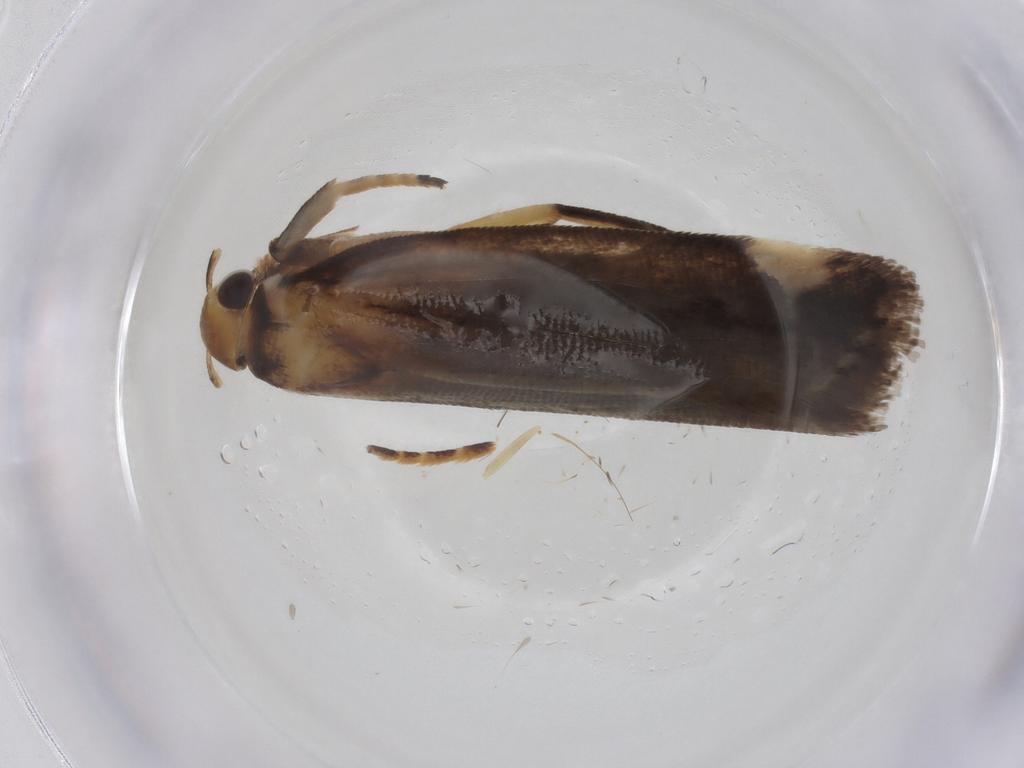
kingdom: Animalia
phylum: Arthropoda
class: Insecta
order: Lepidoptera
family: Gelechiidae
